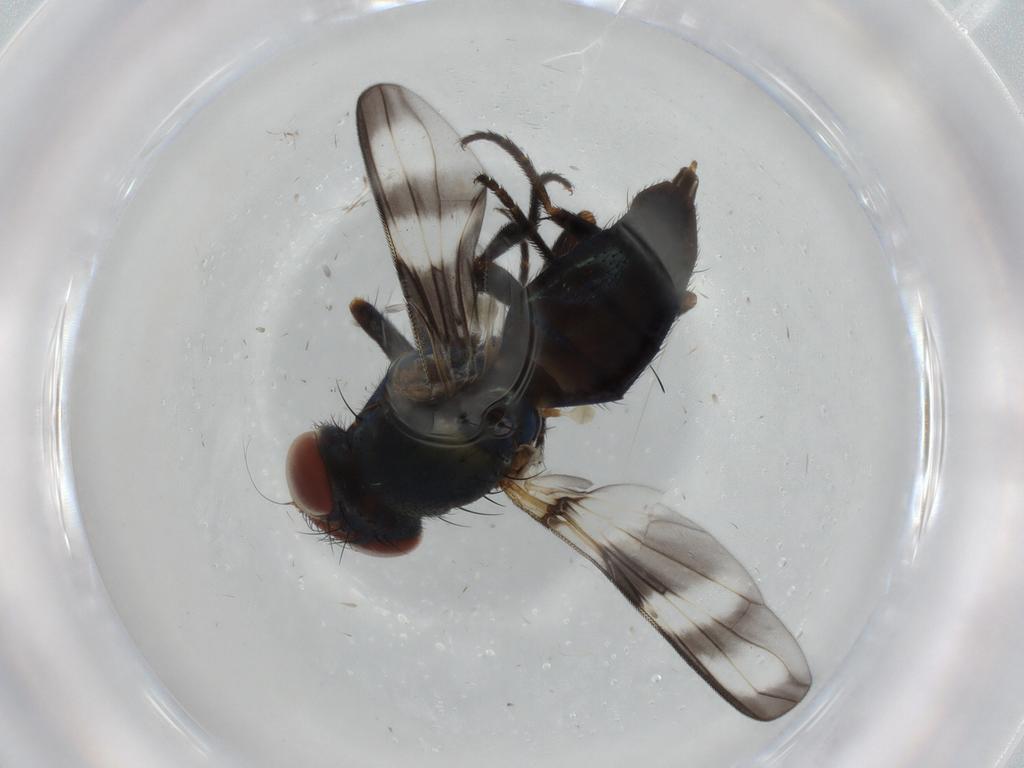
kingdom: Animalia
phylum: Arthropoda
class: Insecta
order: Diptera
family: Ulidiidae
